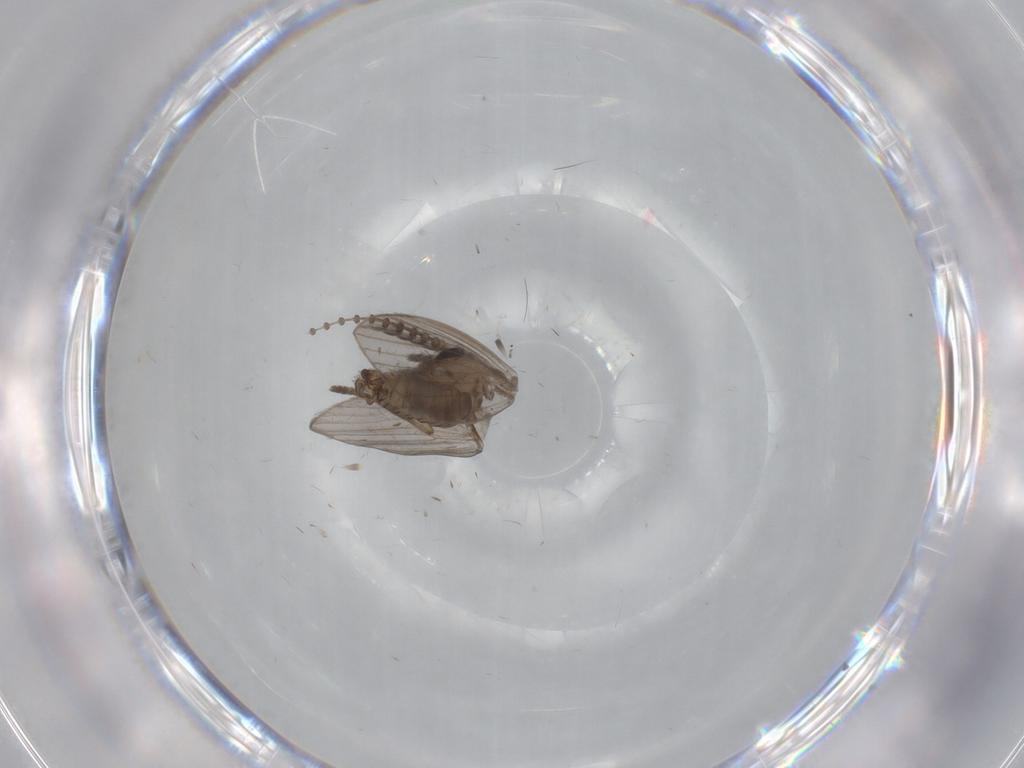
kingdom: Animalia
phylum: Arthropoda
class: Insecta
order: Diptera
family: Psychodidae
